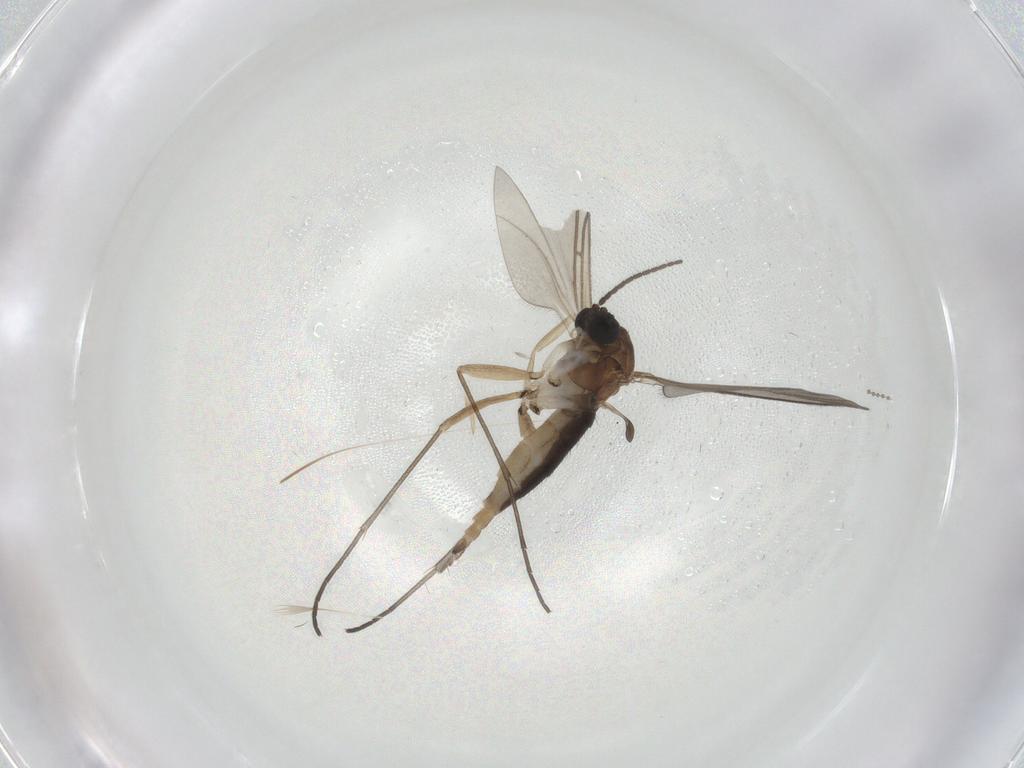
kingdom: Animalia
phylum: Arthropoda
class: Insecta
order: Diptera
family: Sciaridae
